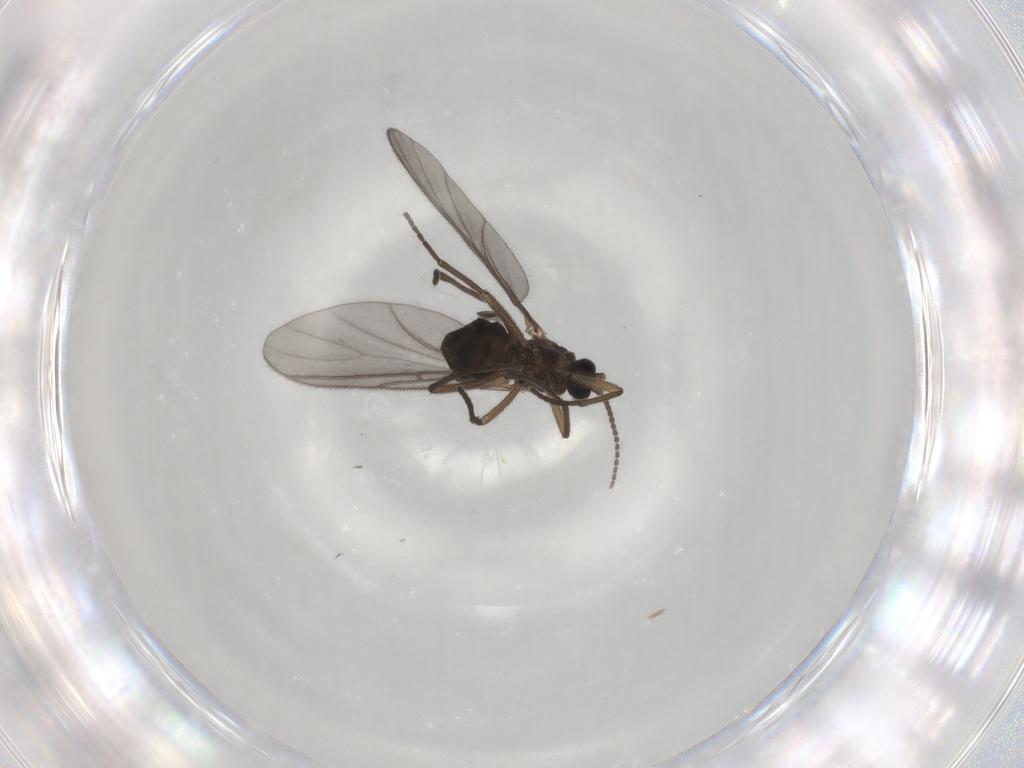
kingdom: Animalia
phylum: Arthropoda
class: Insecta
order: Diptera
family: Sciaridae
